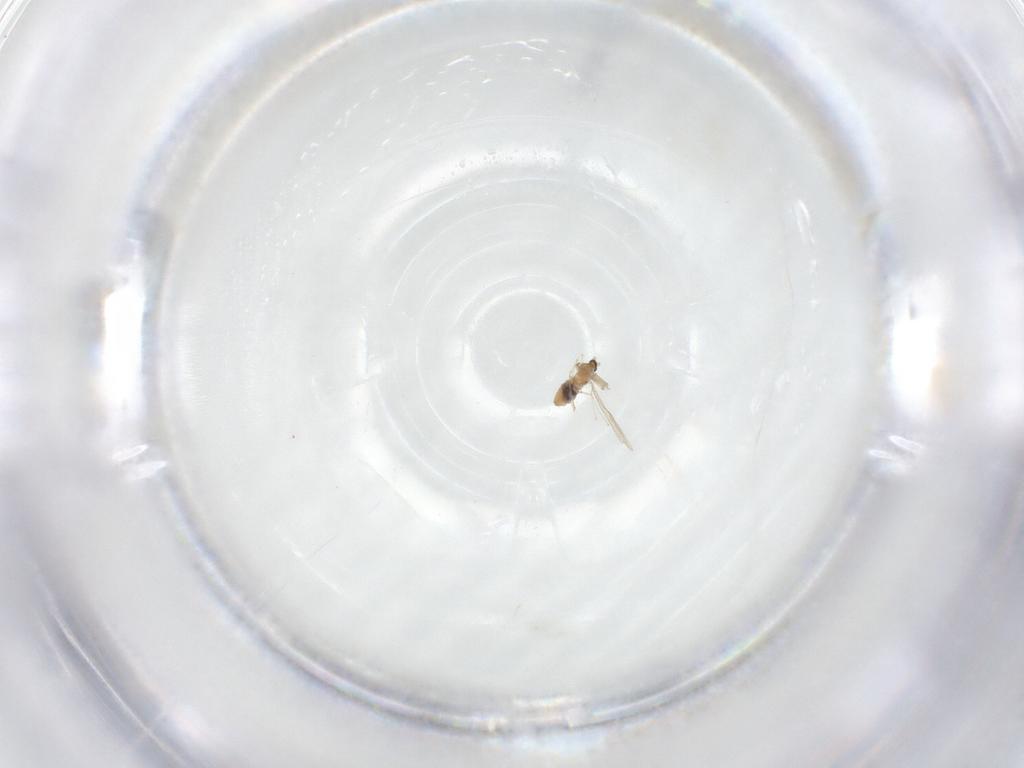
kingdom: Animalia
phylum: Arthropoda
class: Insecta
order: Diptera
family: Cecidomyiidae
